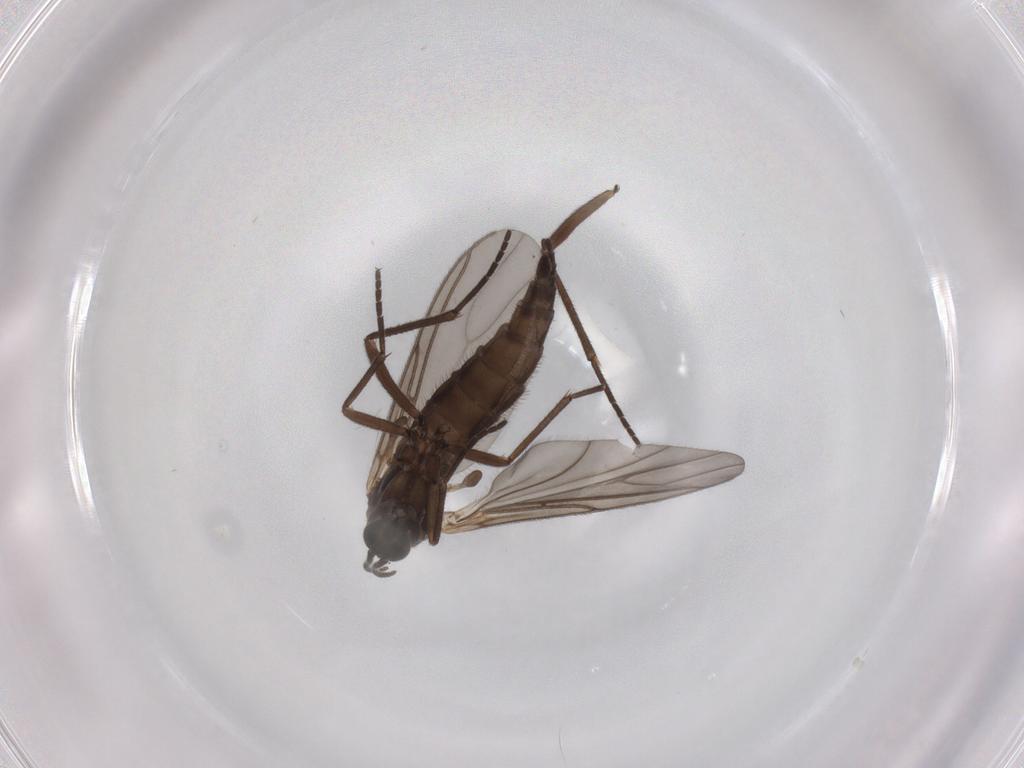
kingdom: Animalia
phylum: Arthropoda
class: Insecta
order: Diptera
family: Sciaridae
